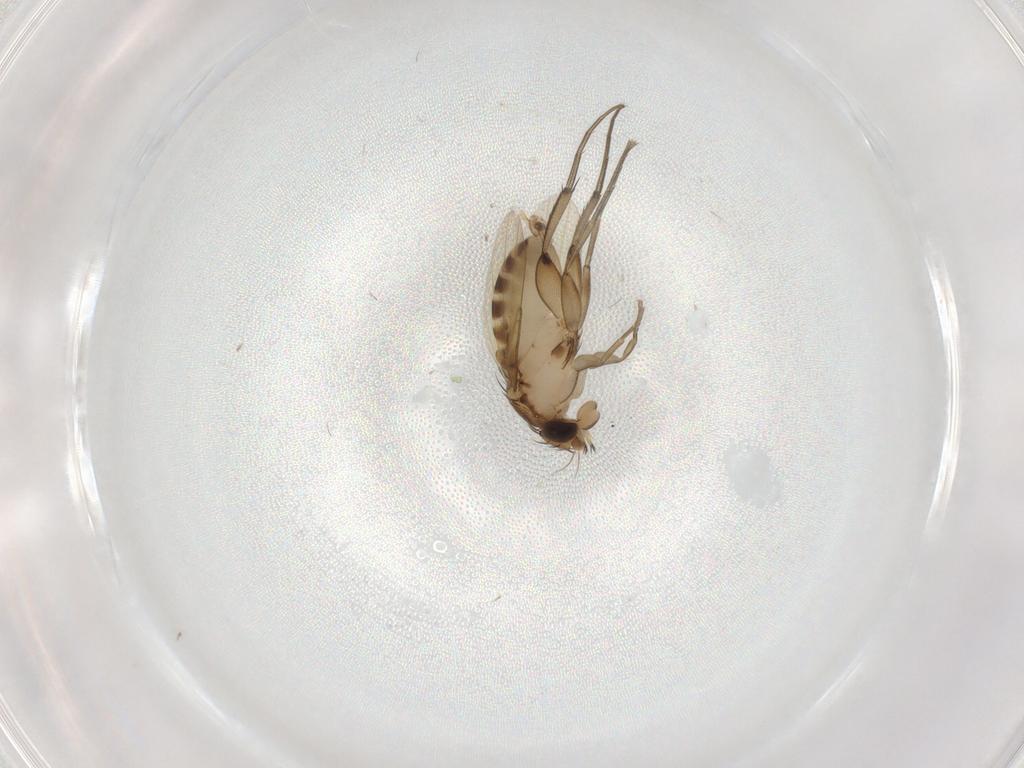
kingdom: Animalia
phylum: Arthropoda
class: Insecta
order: Diptera
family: Phoridae
